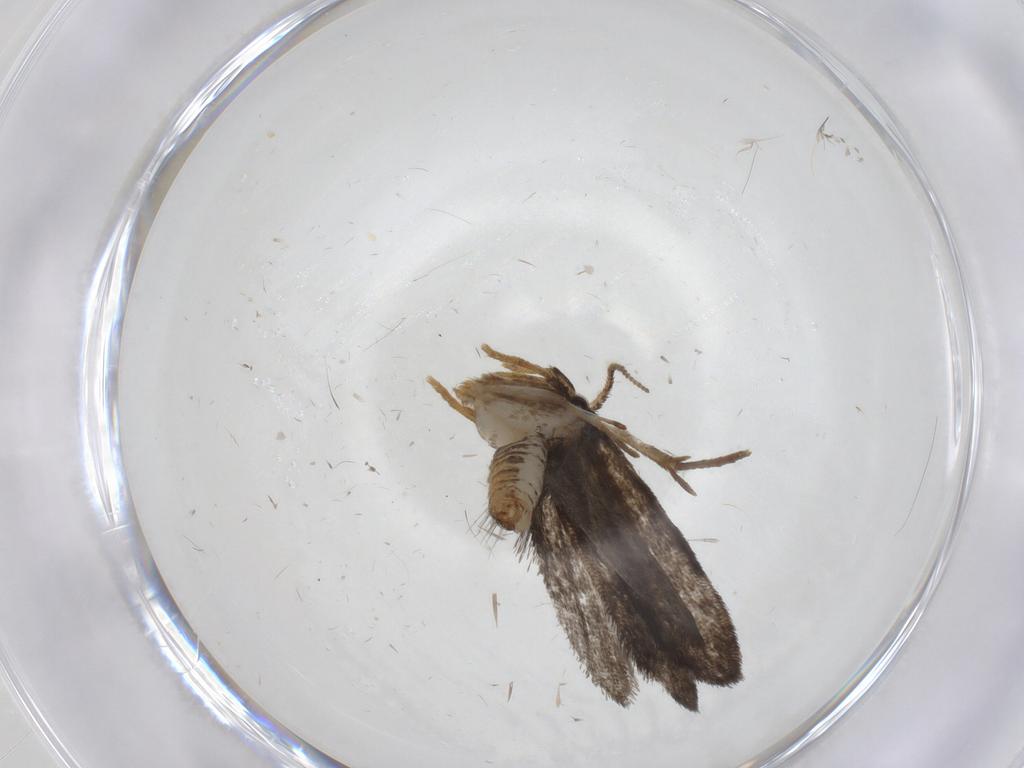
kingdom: Animalia
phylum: Arthropoda
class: Insecta
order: Lepidoptera
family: Psychidae
